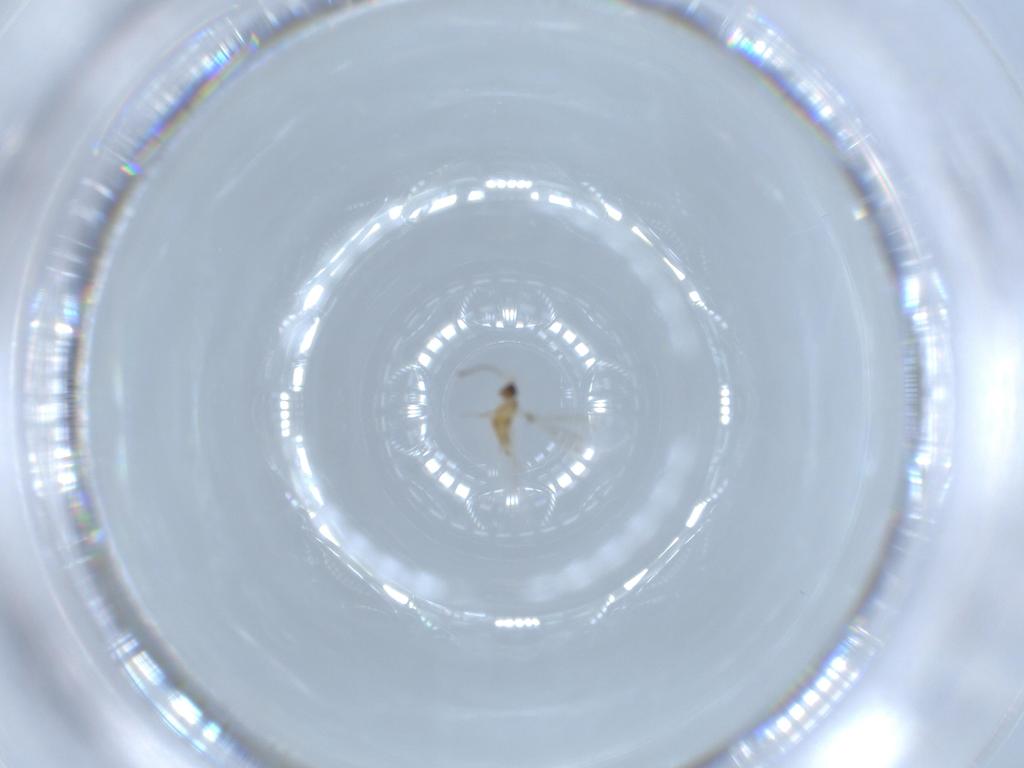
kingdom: Animalia
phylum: Arthropoda
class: Insecta
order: Hymenoptera
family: Mymaridae
